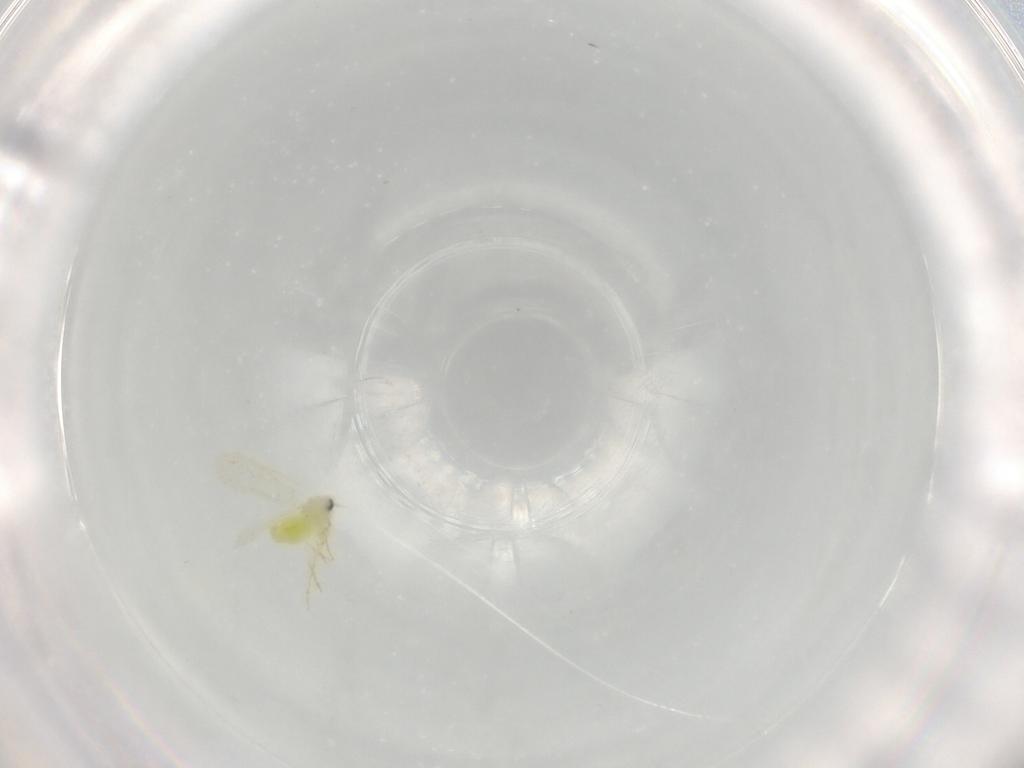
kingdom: Animalia
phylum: Arthropoda
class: Insecta
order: Hemiptera
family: Aleyrodidae
